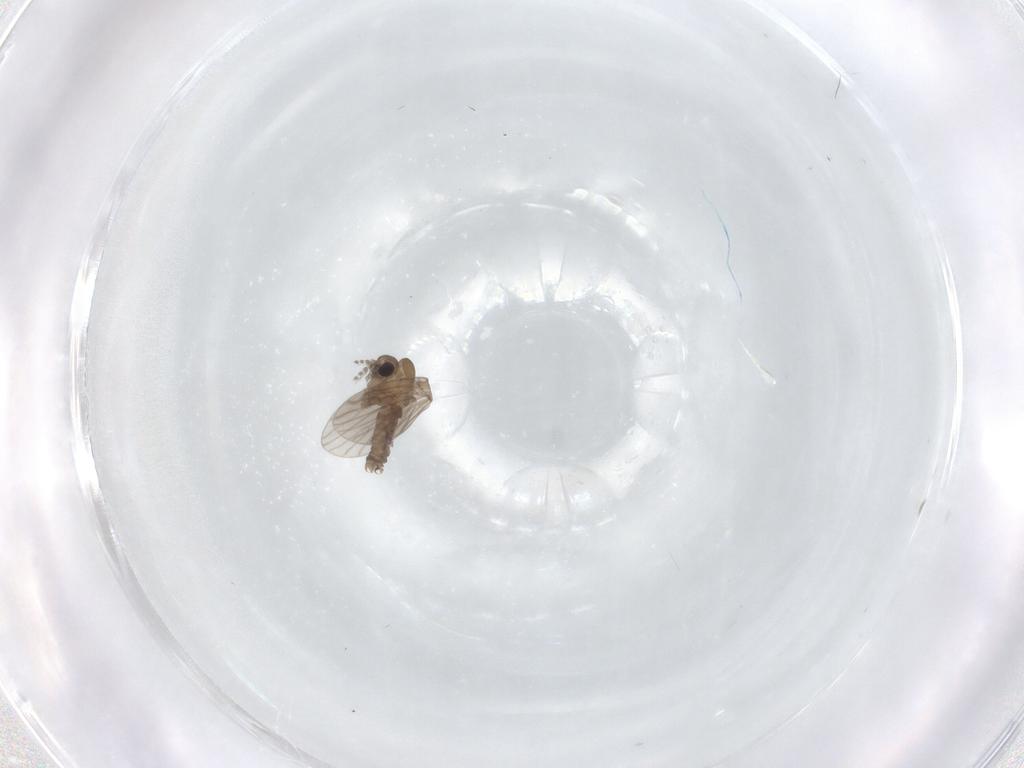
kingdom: Animalia
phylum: Arthropoda
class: Insecta
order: Diptera
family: Psychodidae
